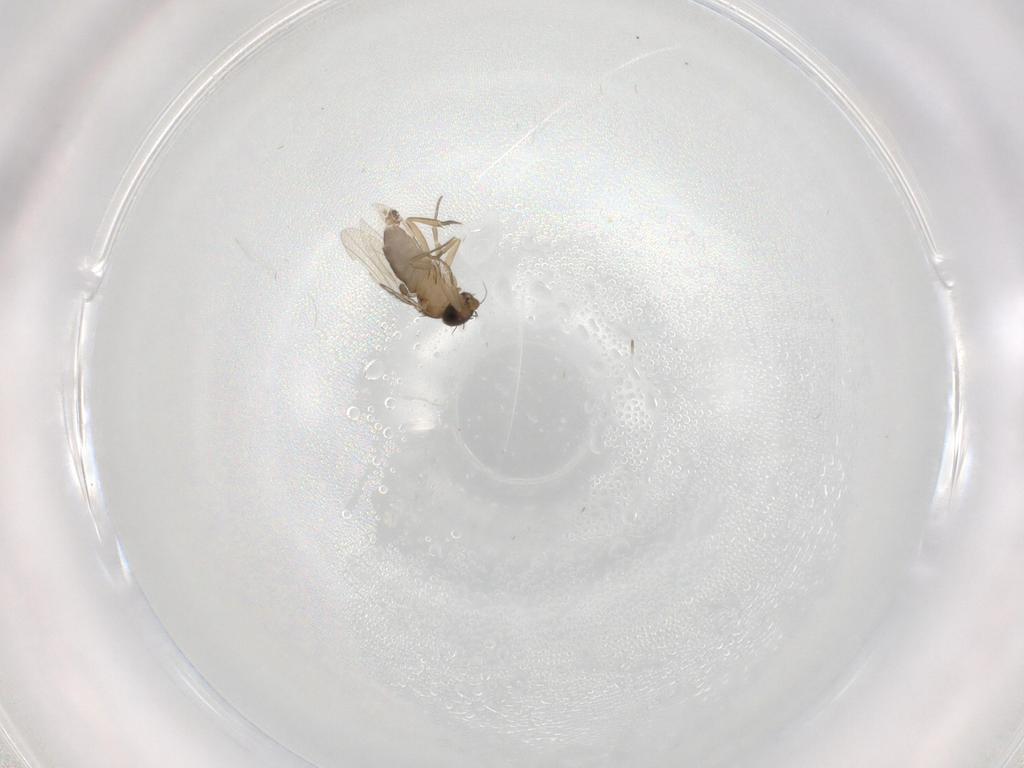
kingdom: Animalia
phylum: Arthropoda
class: Insecta
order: Diptera
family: Phoridae
